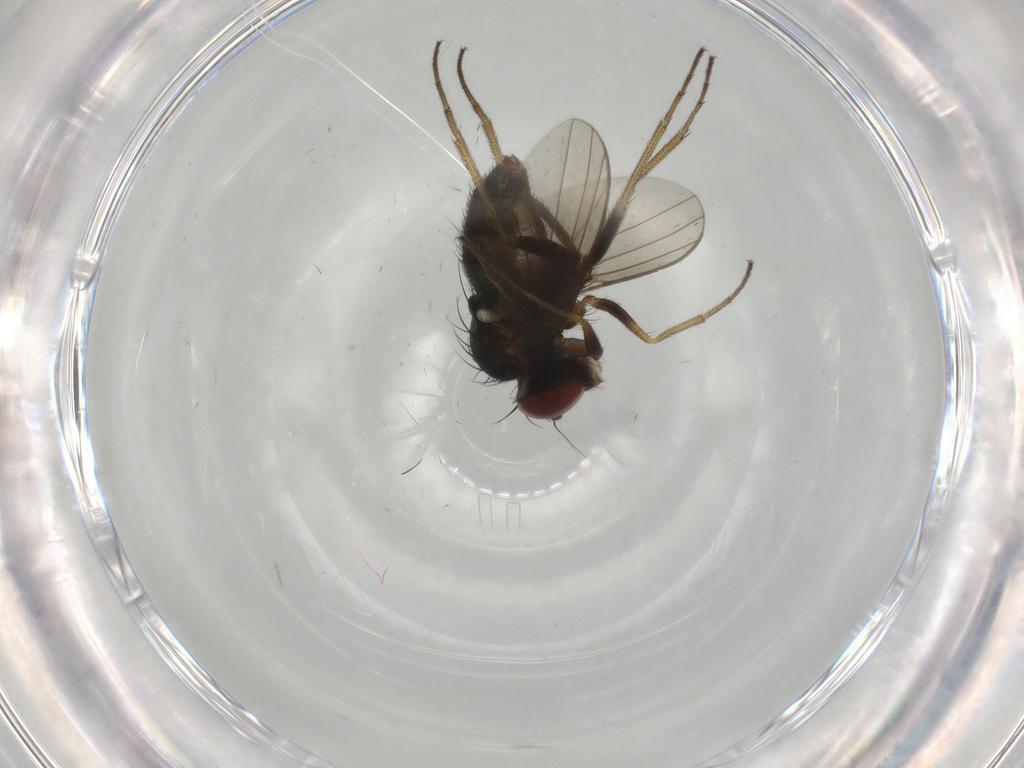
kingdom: Animalia
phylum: Arthropoda
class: Insecta
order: Diptera
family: Dolichopodidae
